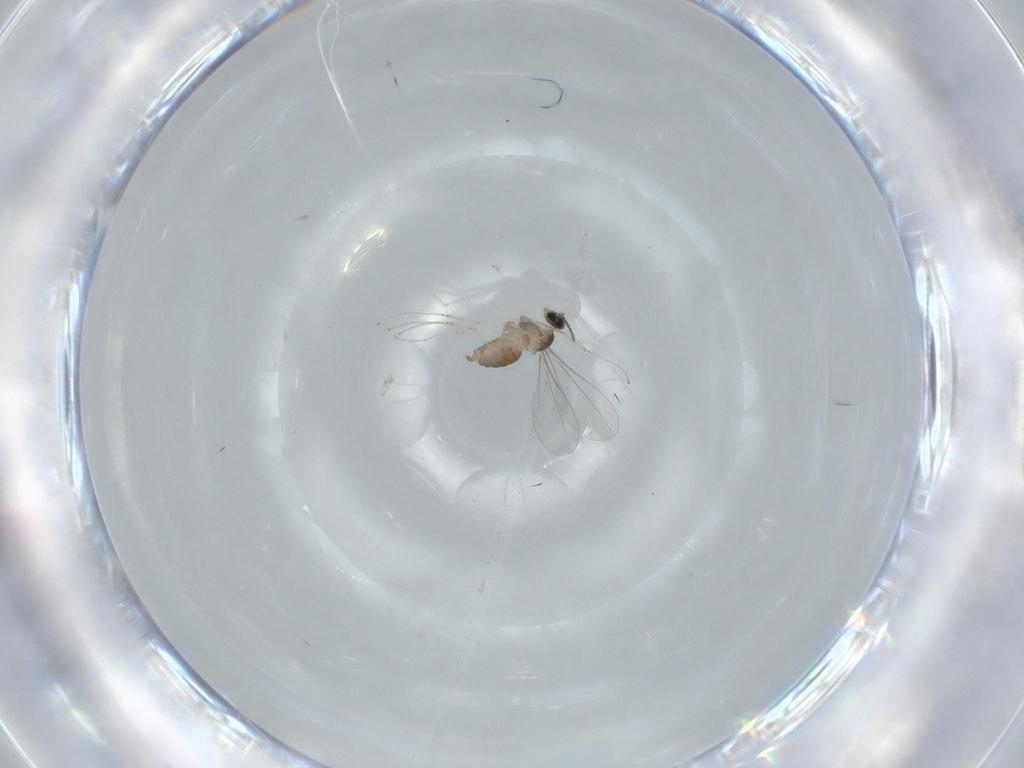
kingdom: Animalia
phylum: Arthropoda
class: Insecta
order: Diptera
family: Cecidomyiidae
